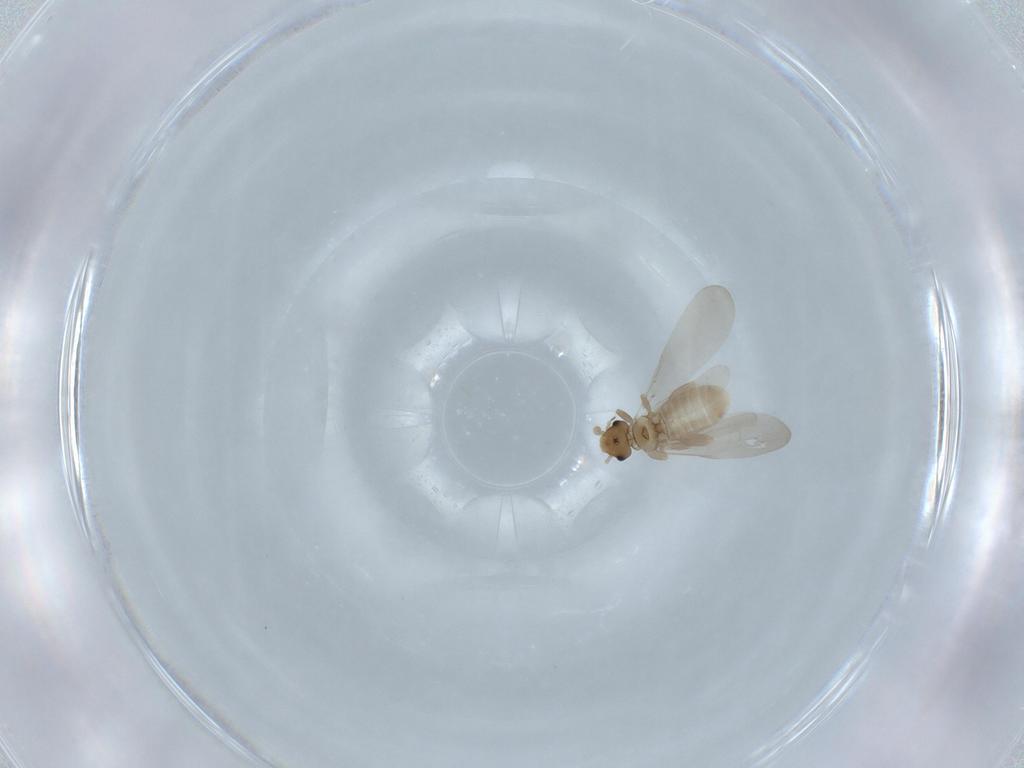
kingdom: Animalia
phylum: Arthropoda
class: Insecta
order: Psocodea
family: Liposcelididae
